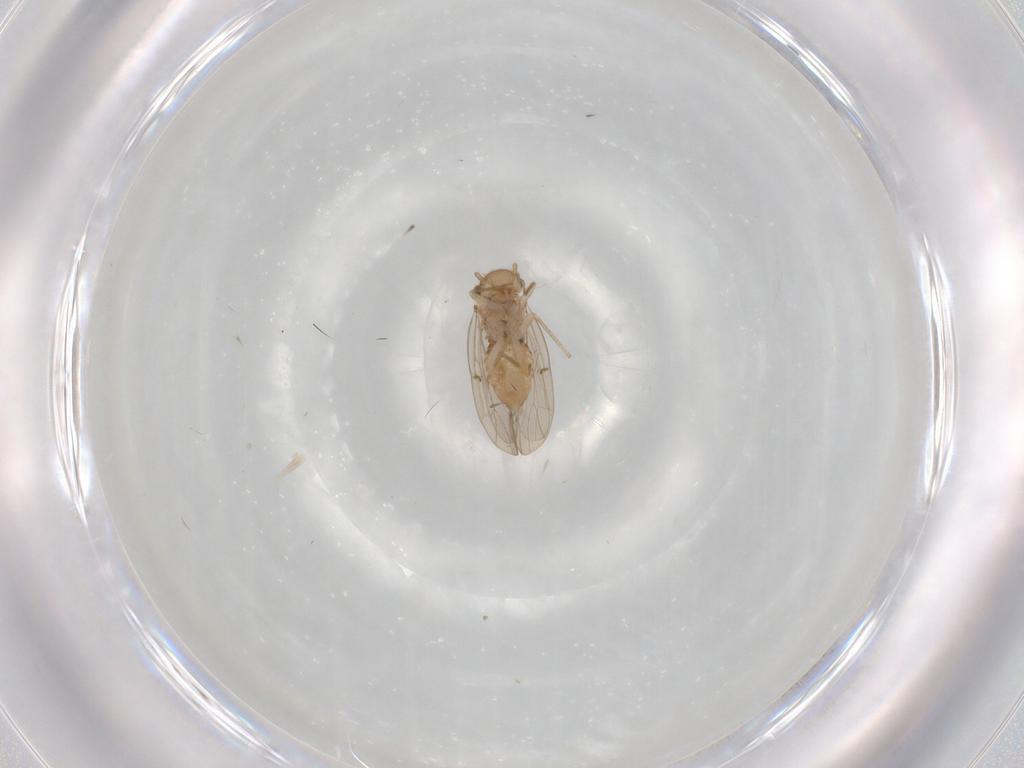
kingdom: Animalia
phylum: Arthropoda
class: Insecta
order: Psocodea
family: Ectopsocidae
